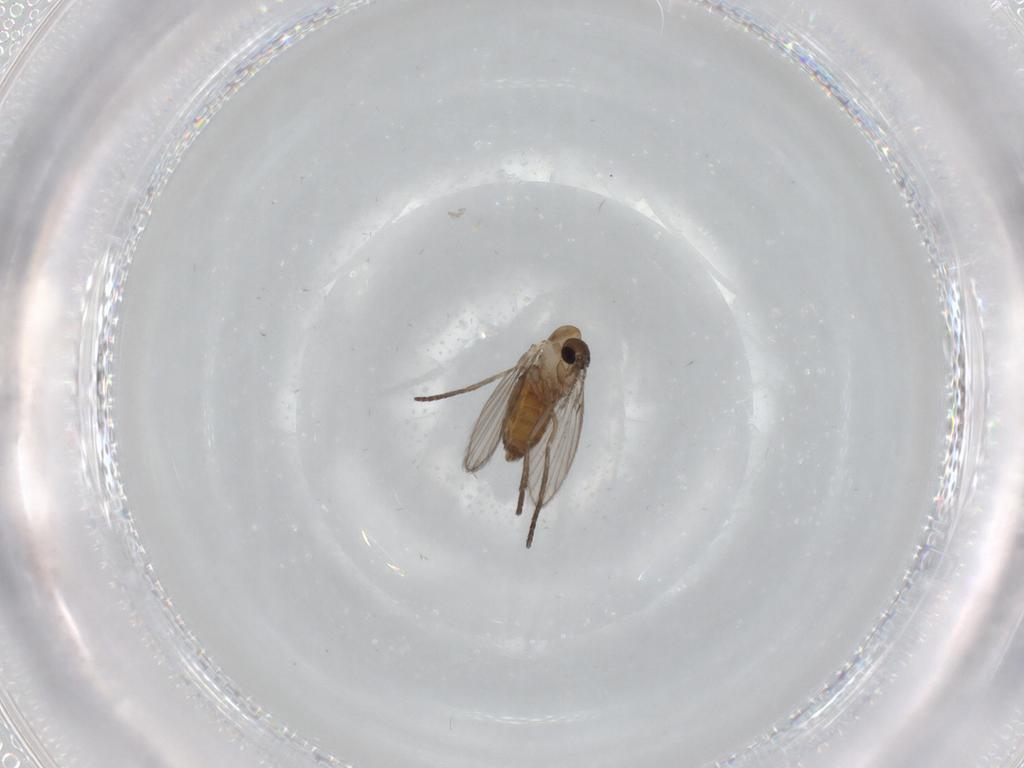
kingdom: Animalia
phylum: Arthropoda
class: Insecta
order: Diptera
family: Psychodidae
